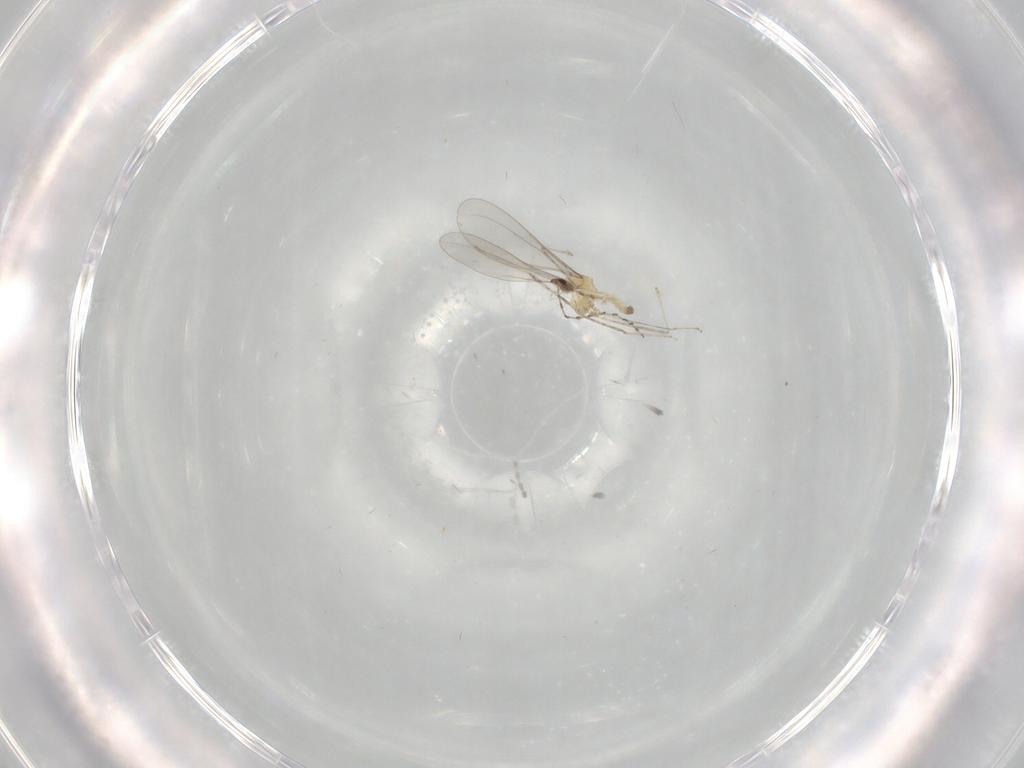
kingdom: Animalia
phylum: Arthropoda
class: Insecta
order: Diptera
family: Cecidomyiidae
